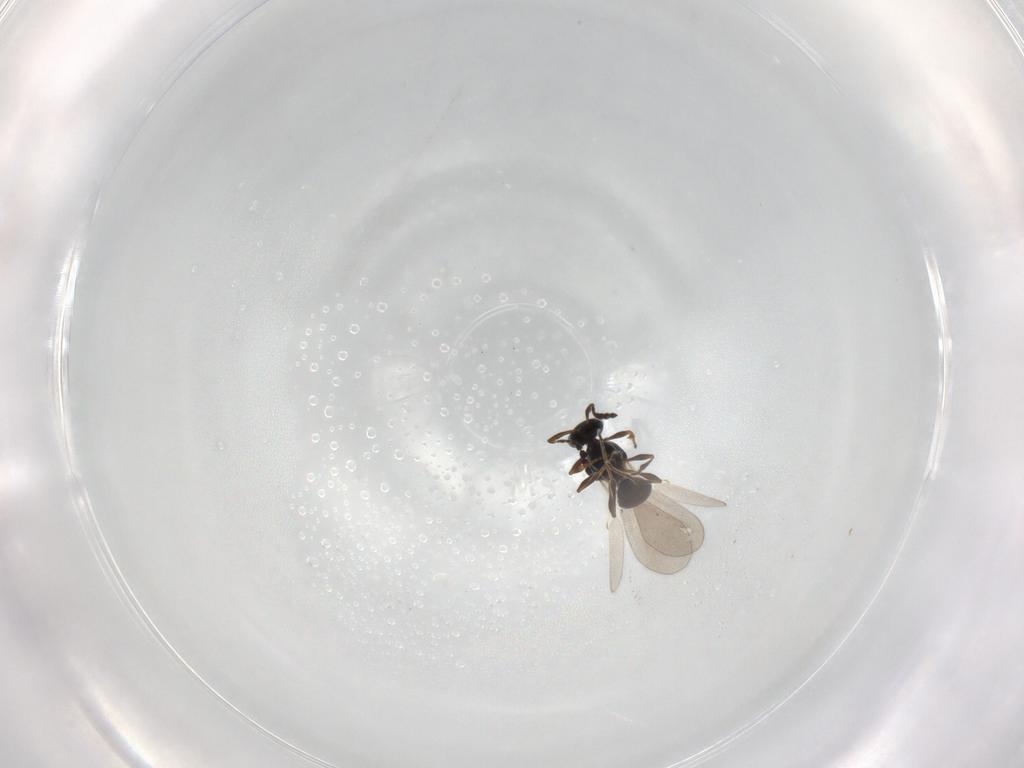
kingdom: Animalia
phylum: Arthropoda
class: Insecta
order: Hymenoptera
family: Platygastridae
